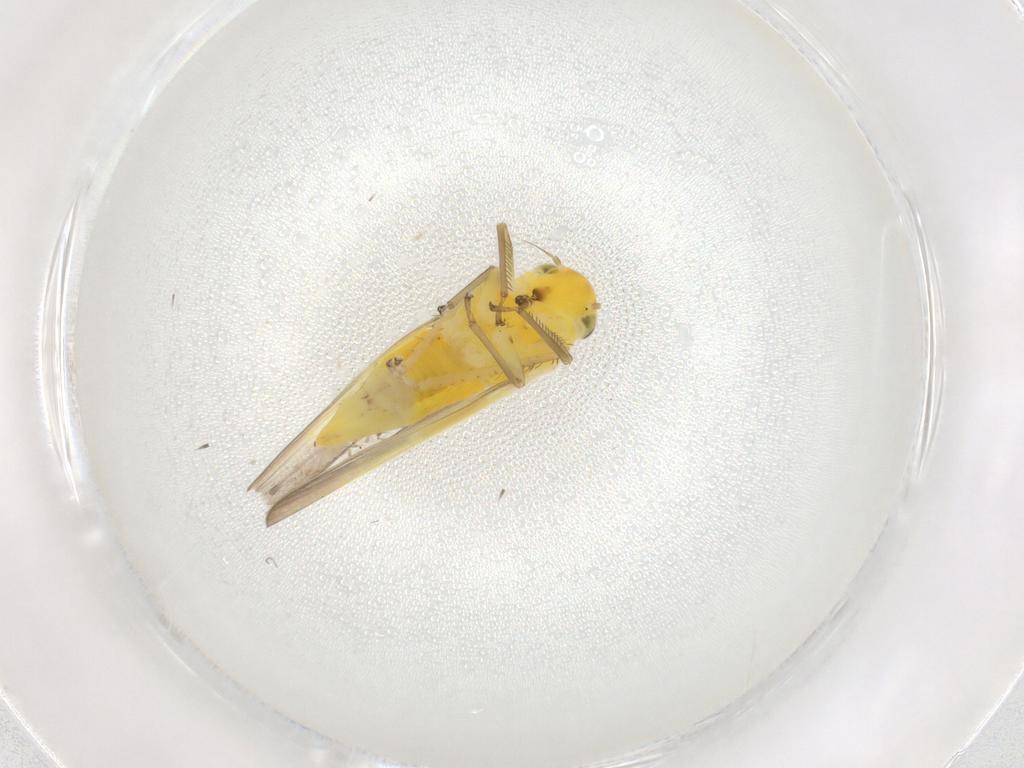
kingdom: Animalia
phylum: Arthropoda
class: Insecta
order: Hemiptera
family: Cicadellidae
